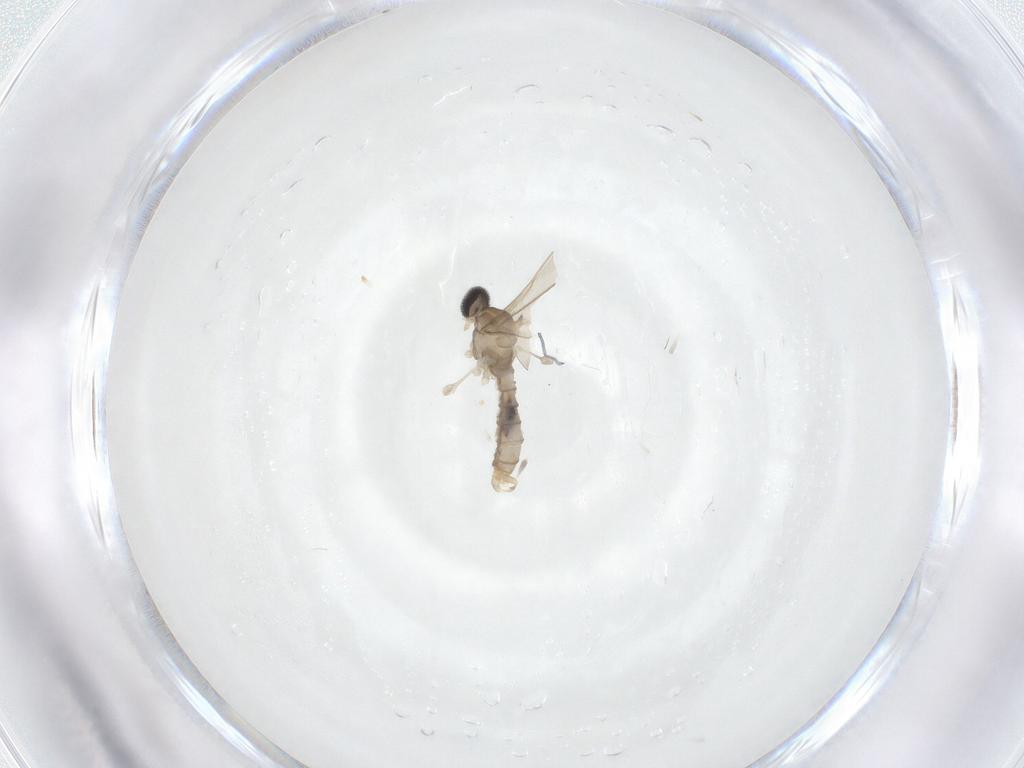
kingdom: Animalia
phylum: Arthropoda
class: Insecta
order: Diptera
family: Cecidomyiidae
